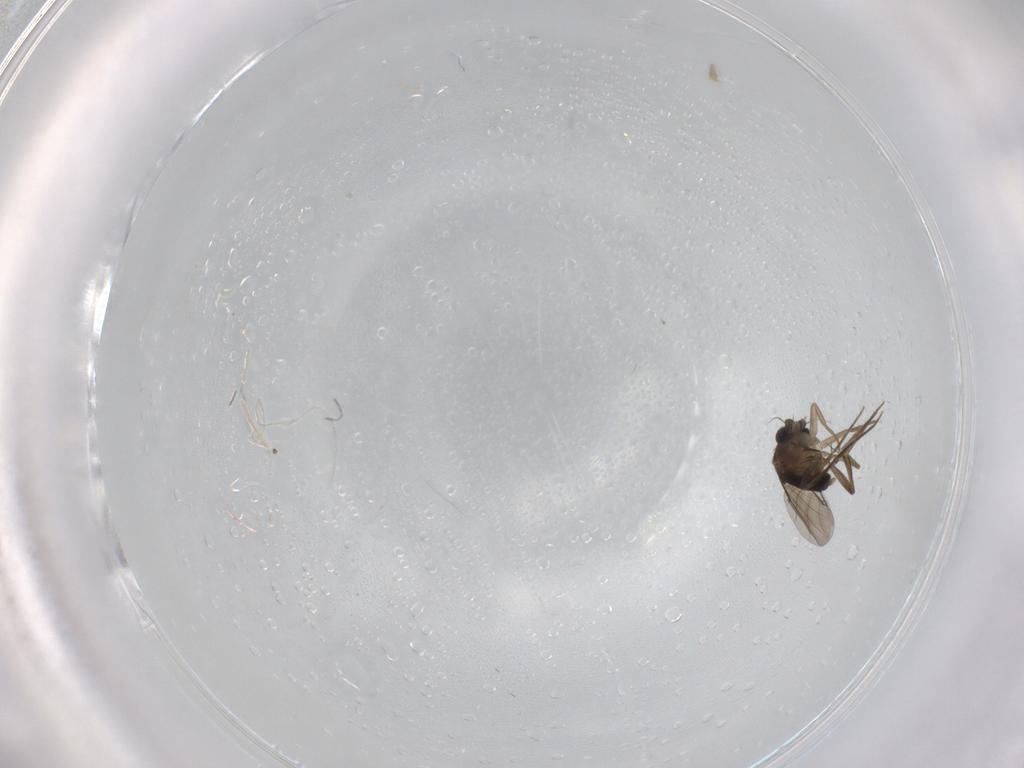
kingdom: Animalia
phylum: Arthropoda
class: Insecta
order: Diptera
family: Phoridae
